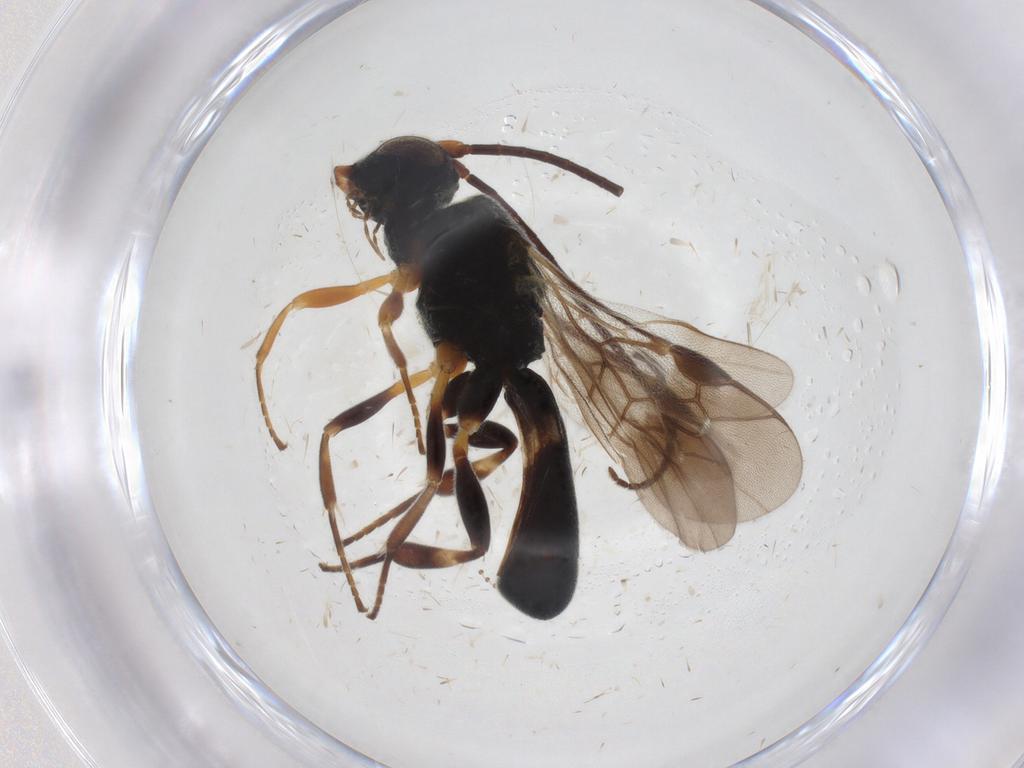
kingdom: Animalia
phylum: Arthropoda
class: Insecta
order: Hymenoptera
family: Braconidae
